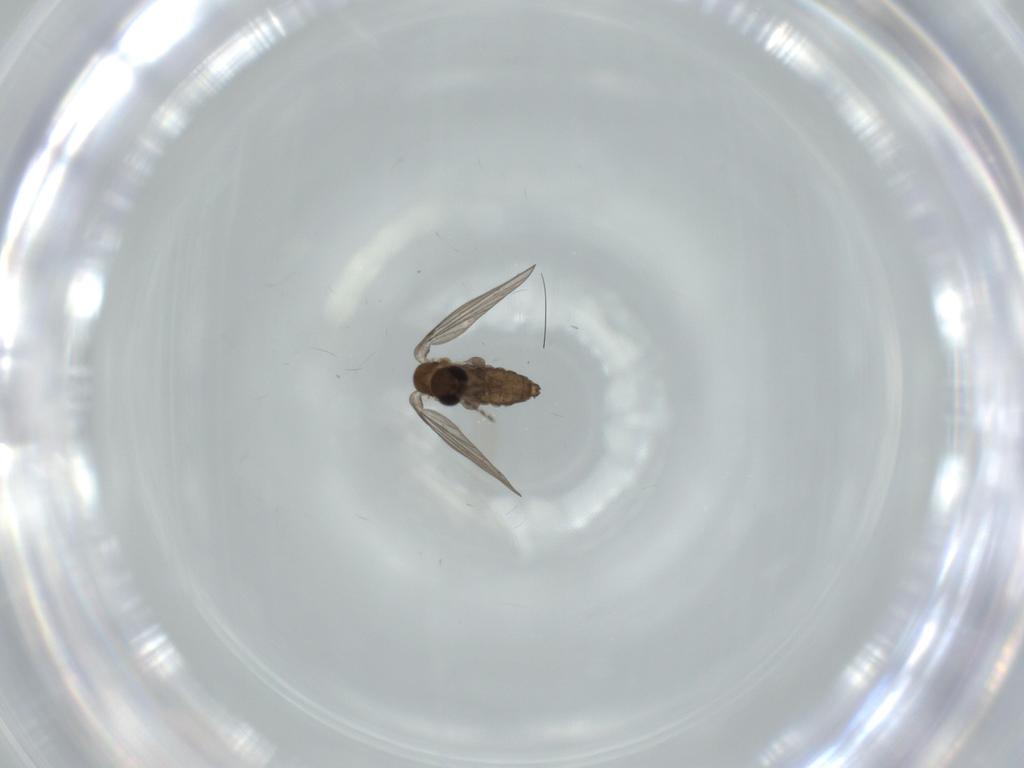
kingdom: Animalia
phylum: Arthropoda
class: Insecta
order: Diptera
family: Psychodidae
